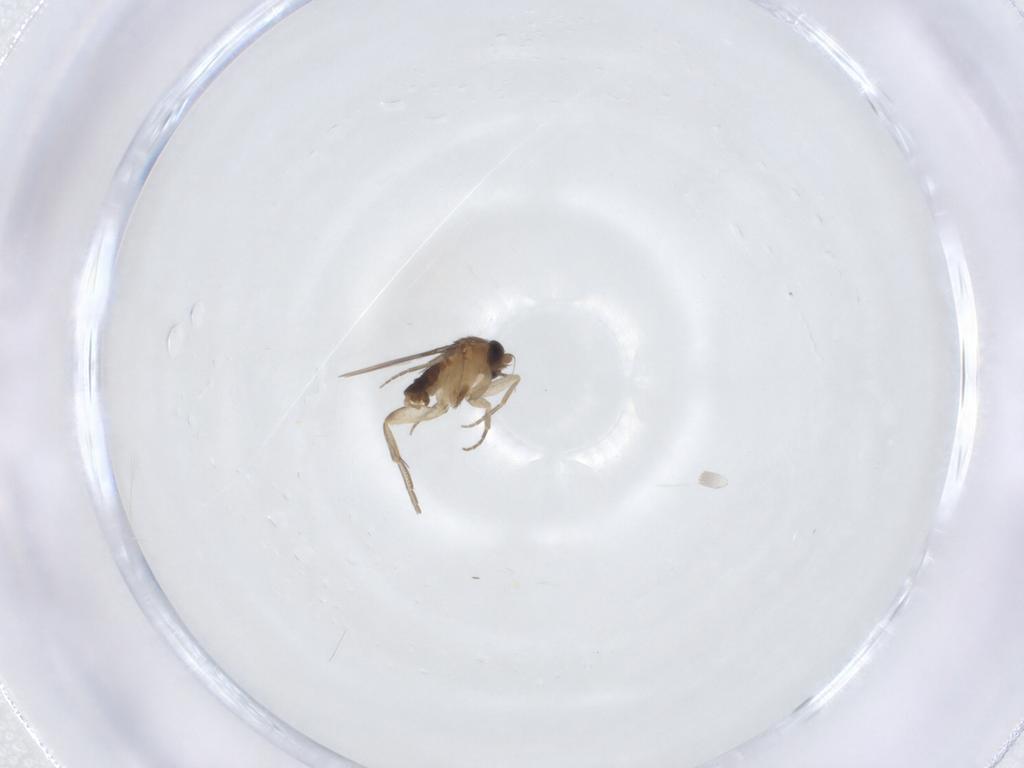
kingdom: Animalia
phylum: Arthropoda
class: Insecta
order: Diptera
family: Phoridae
